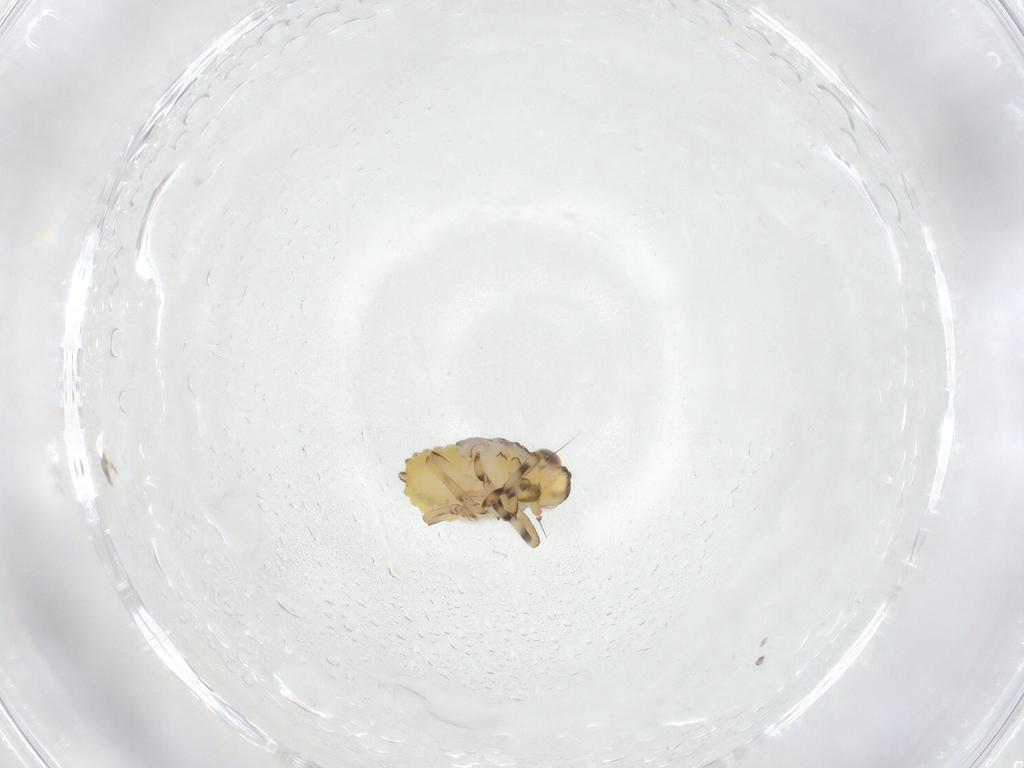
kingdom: Animalia
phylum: Arthropoda
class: Insecta
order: Hemiptera
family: Issidae
